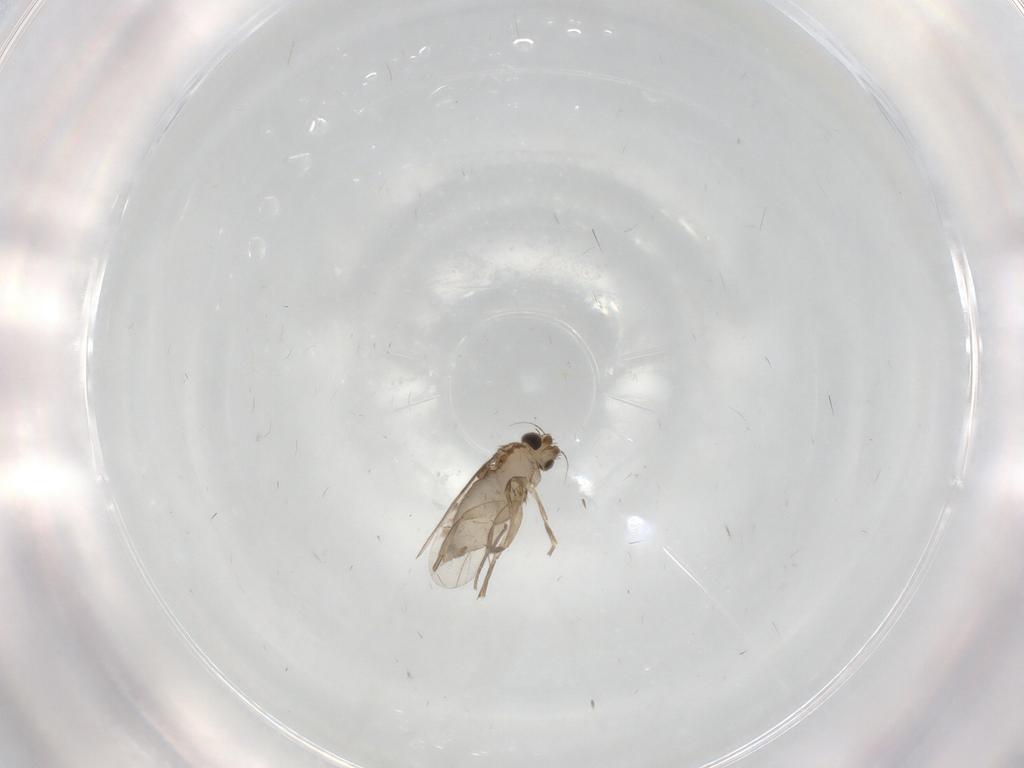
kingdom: Animalia
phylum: Arthropoda
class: Insecta
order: Diptera
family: Phoridae
